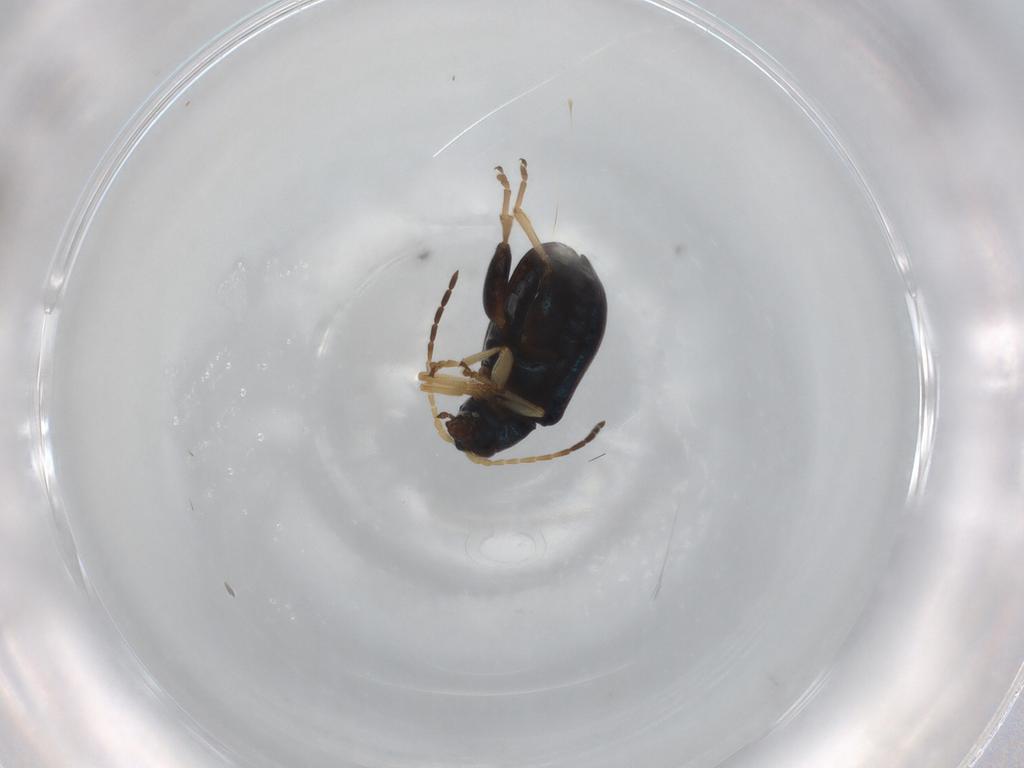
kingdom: Animalia
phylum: Arthropoda
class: Insecta
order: Coleoptera
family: Chrysomelidae
